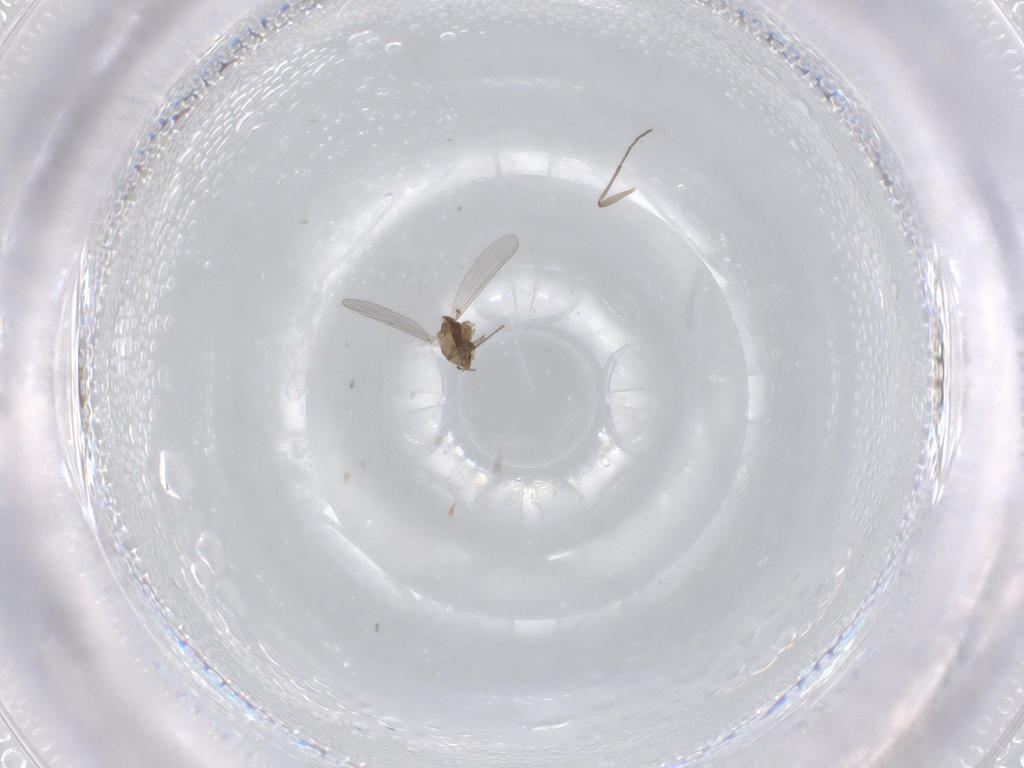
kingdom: Animalia
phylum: Arthropoda
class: Insecta
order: Diptera
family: Chironomidae
